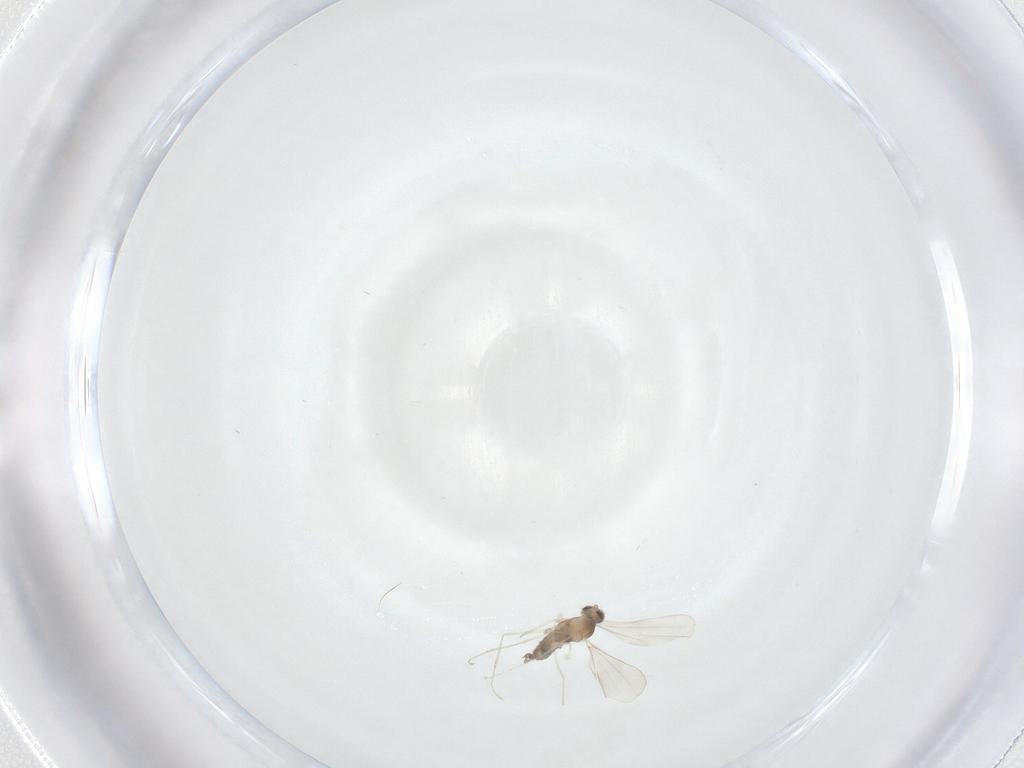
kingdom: Animalia
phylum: Arthropoda
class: Insecta
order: Diptera
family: Cecidomyiidae
